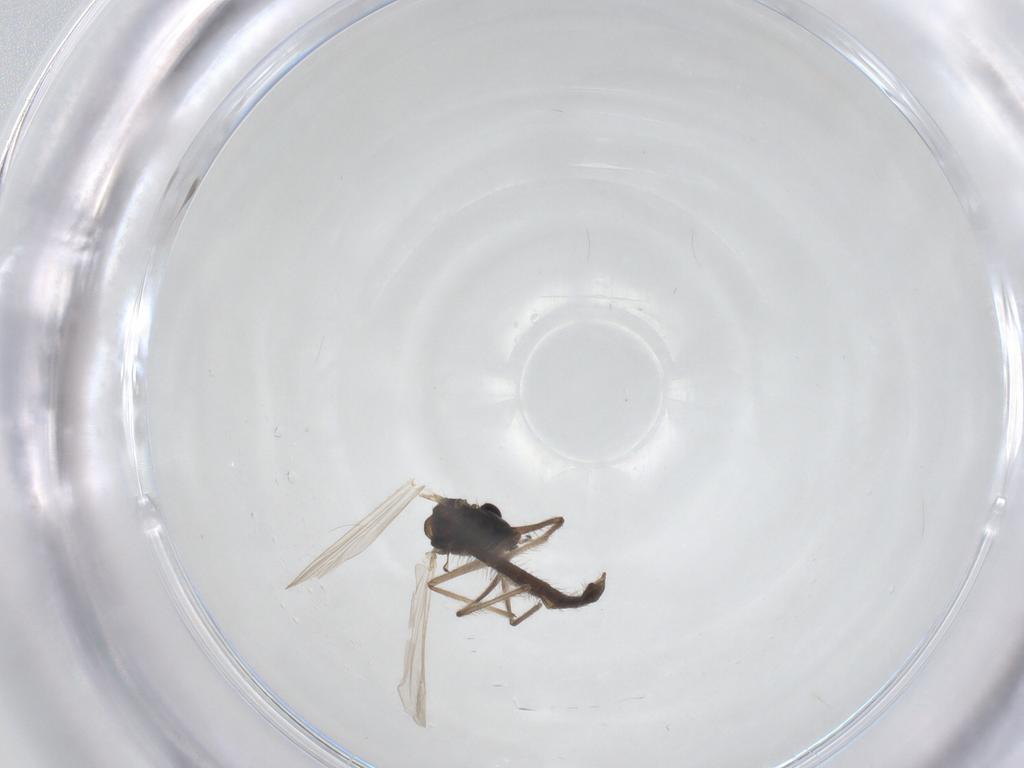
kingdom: Animalia
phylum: Arthropoda
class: Insecta
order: Diptera
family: Chironomidae
